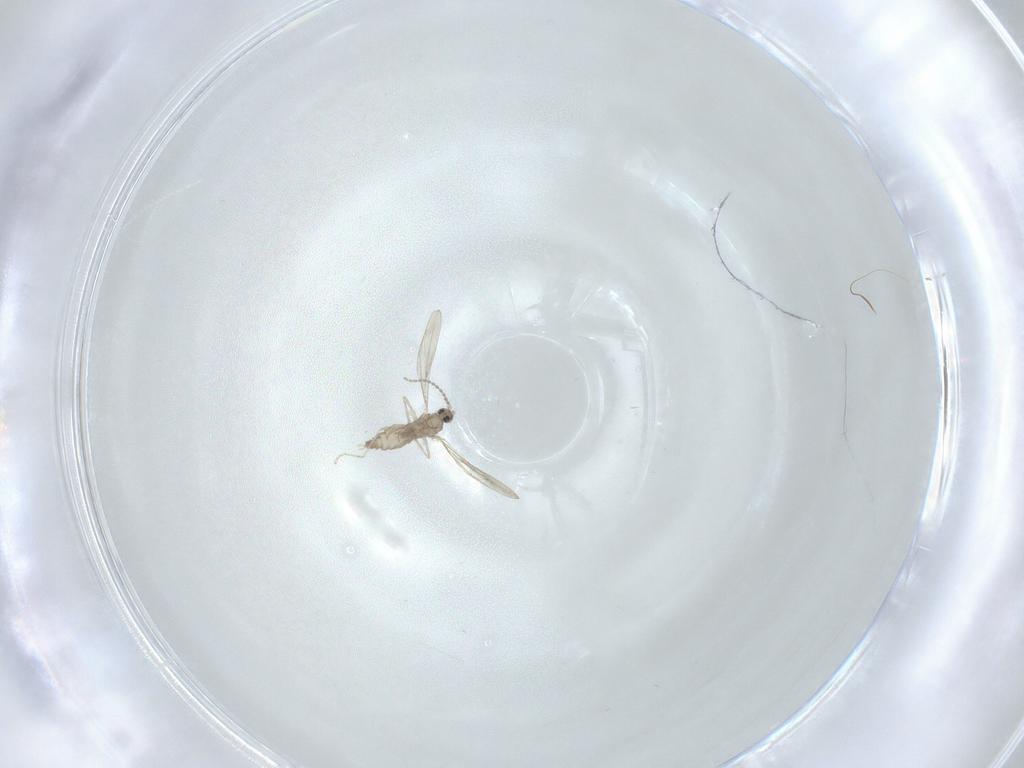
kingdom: Animalia
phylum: Arthropoda
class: Insecta
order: Diptera
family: Cecidomyiidae
